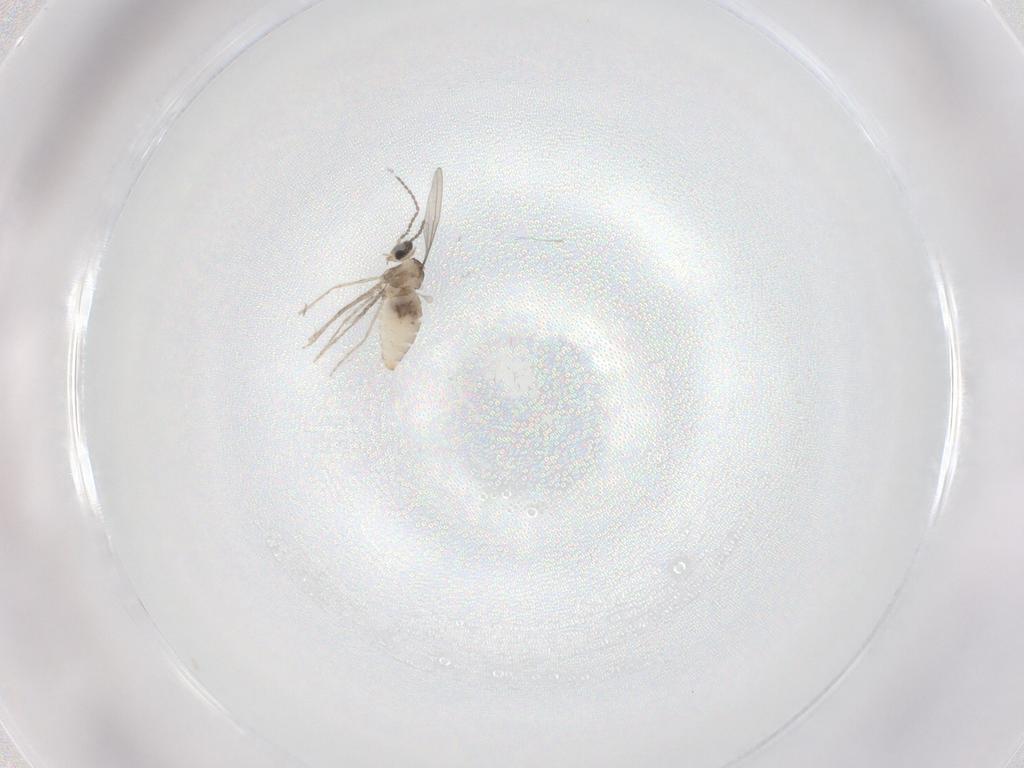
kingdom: Animalia
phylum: Arthropoda
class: Insecta
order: Diptera
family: Cecidomyiidae
